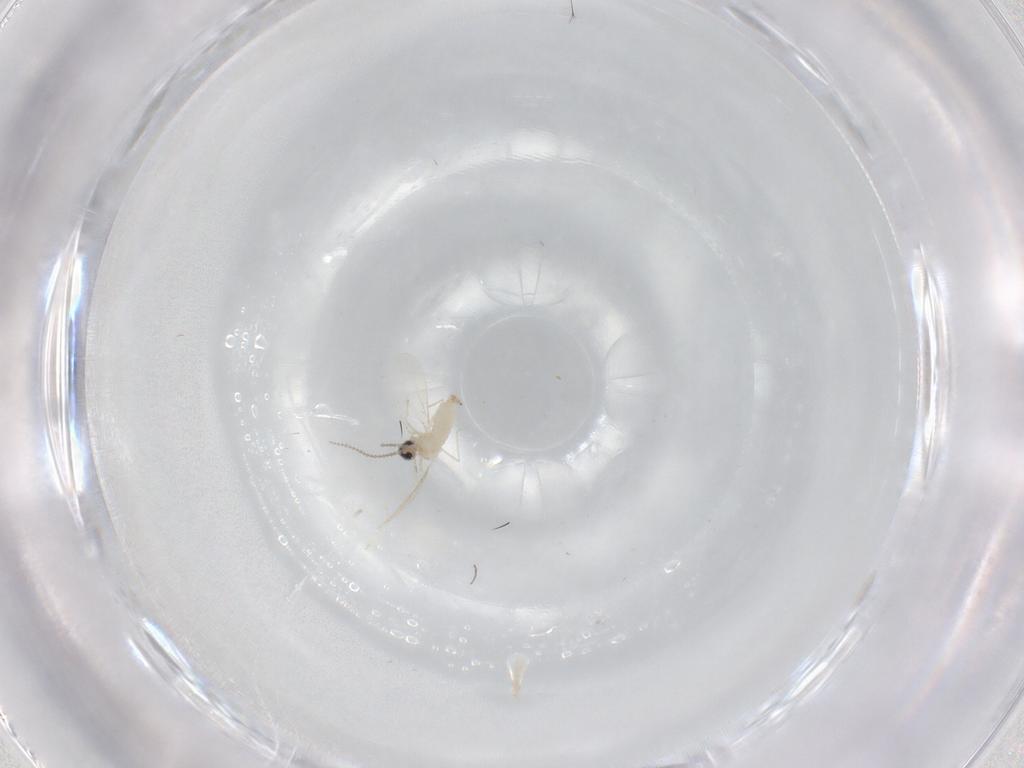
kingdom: Animalia
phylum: Arthropoda
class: Insecta
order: Diptera
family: Cecidomyiidae
